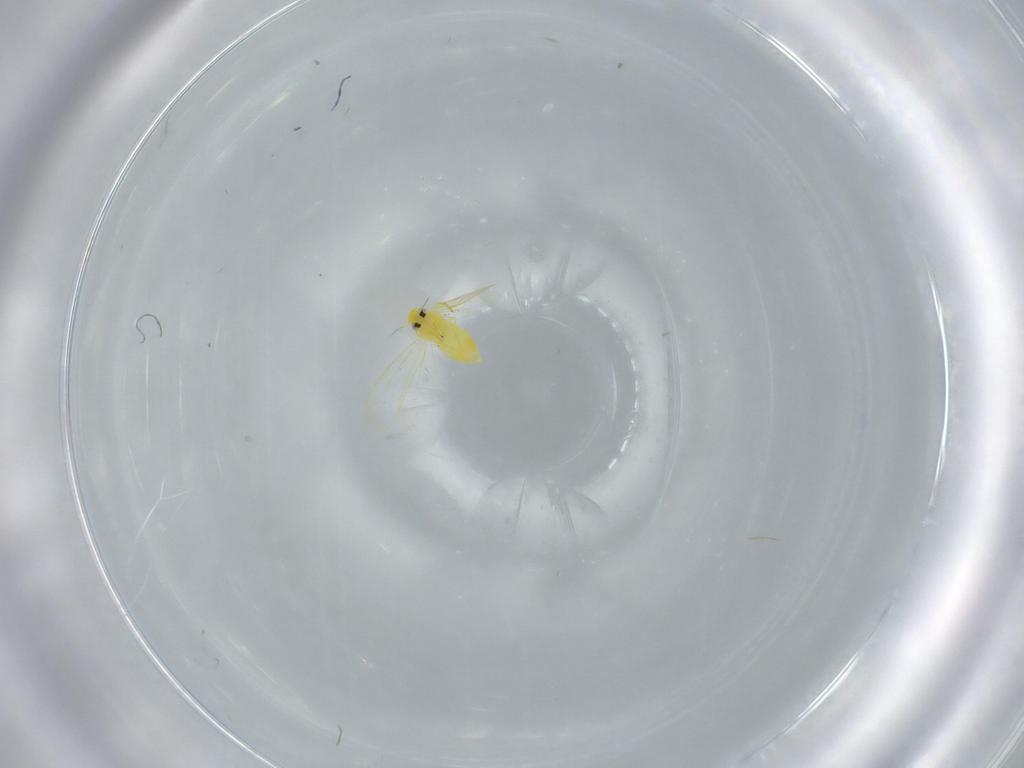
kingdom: Animalia
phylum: Arthropoda
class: Insecta
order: Hemiptera
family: Aleyrodidae
